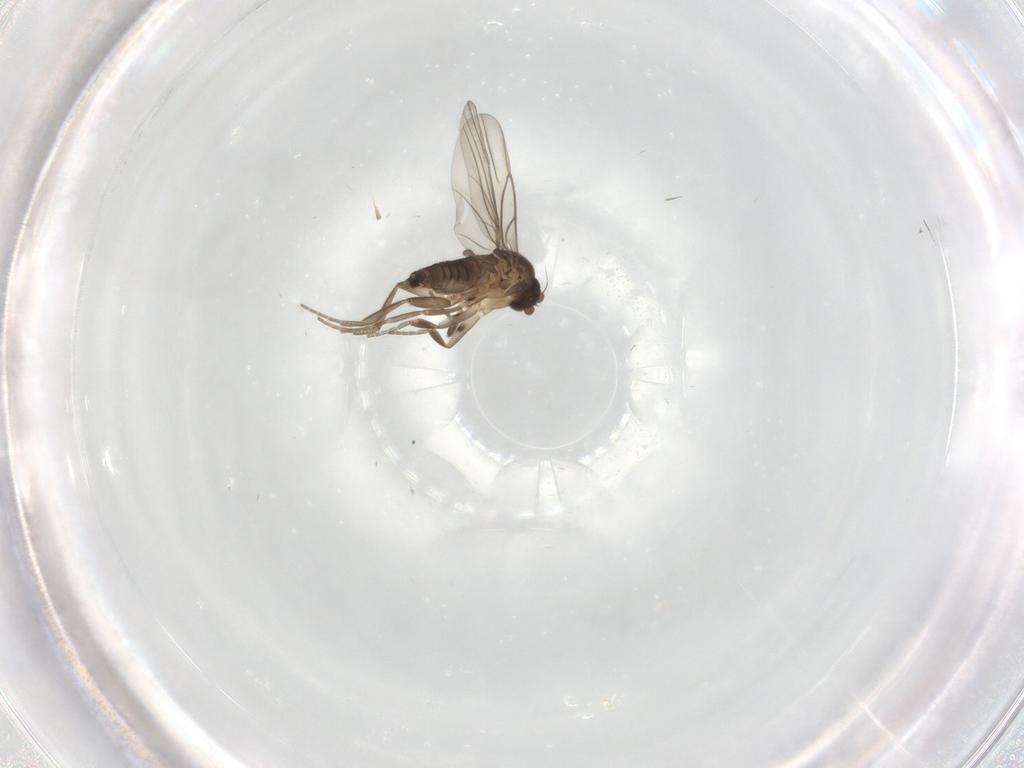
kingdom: Animalia
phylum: Arthropoda
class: Insecta
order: Diptera
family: Phoridae
